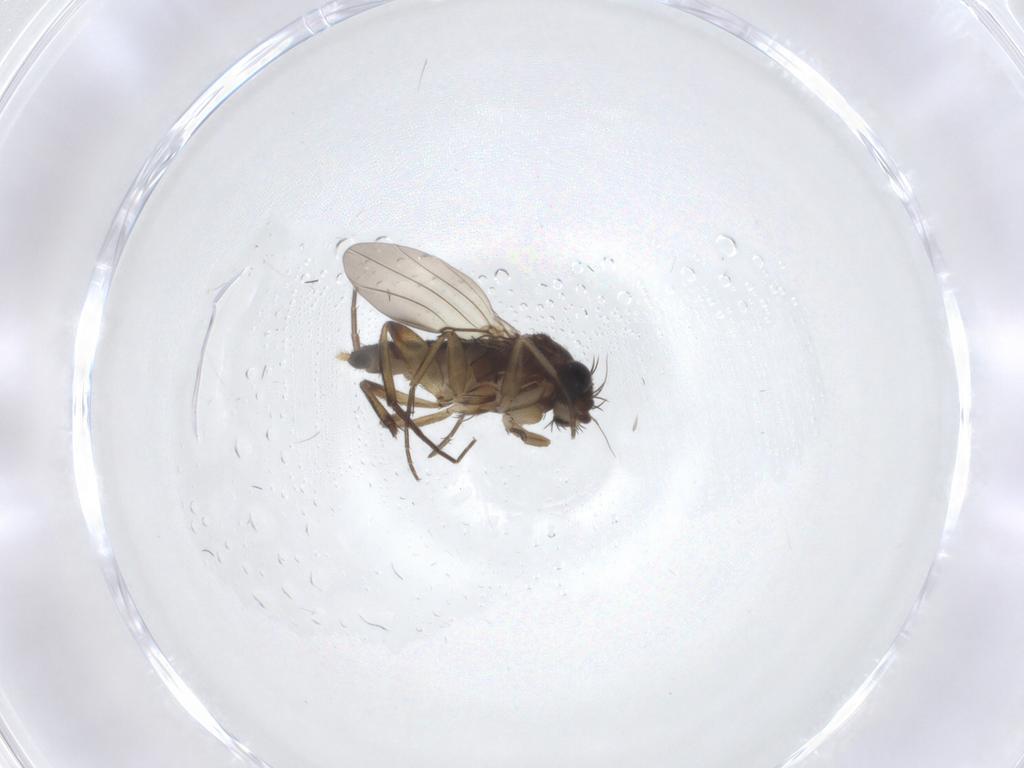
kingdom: Animalia
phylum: Arthropoda
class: Insecta
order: Diptera
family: Phoridae
